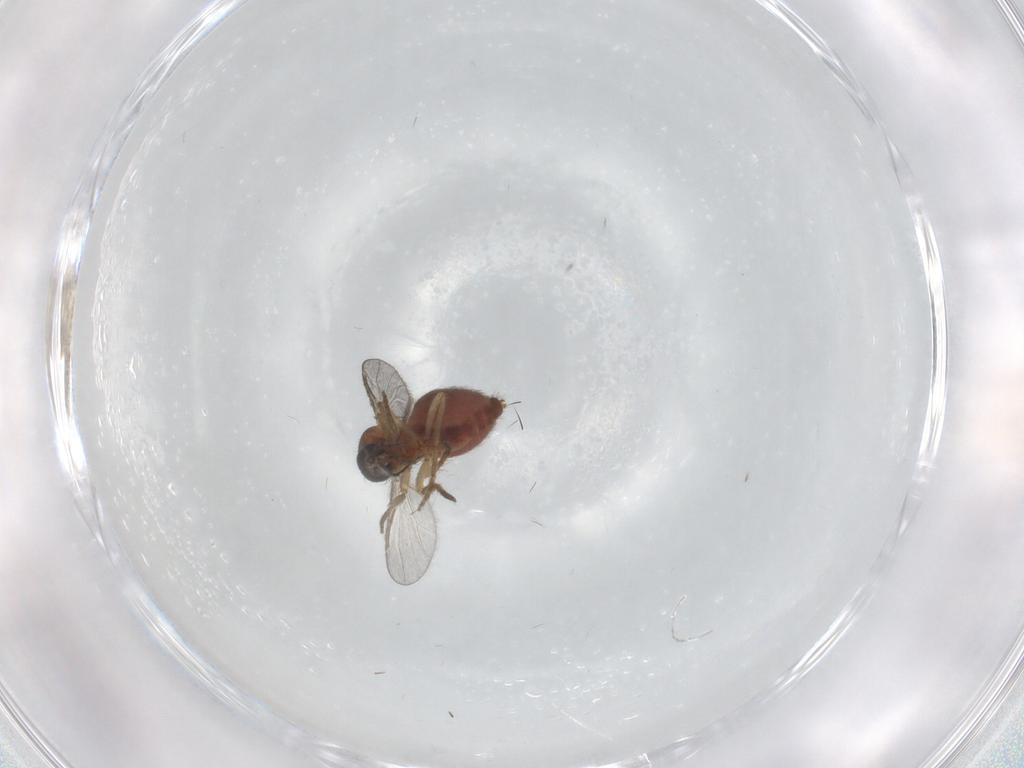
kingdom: Animalia
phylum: Arthropoda
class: Insecta
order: Diptera
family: Ceratopogonidae
